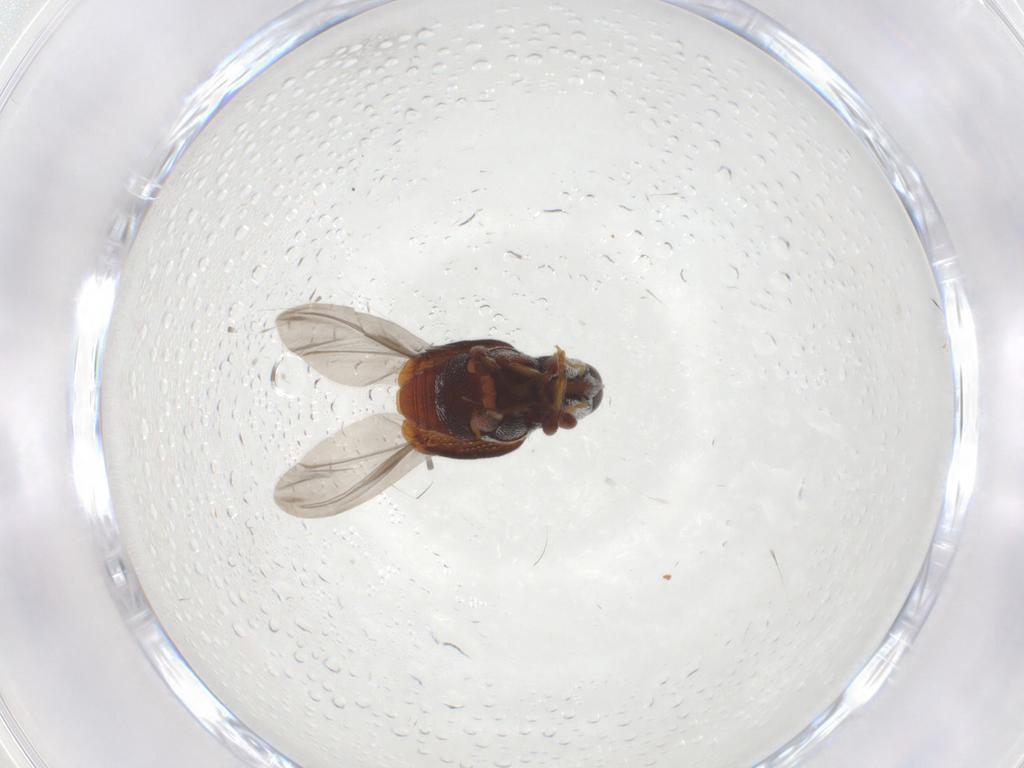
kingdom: Animalia
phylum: Arthropoda
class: Insecta
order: Coleoptera
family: Curculionidae
